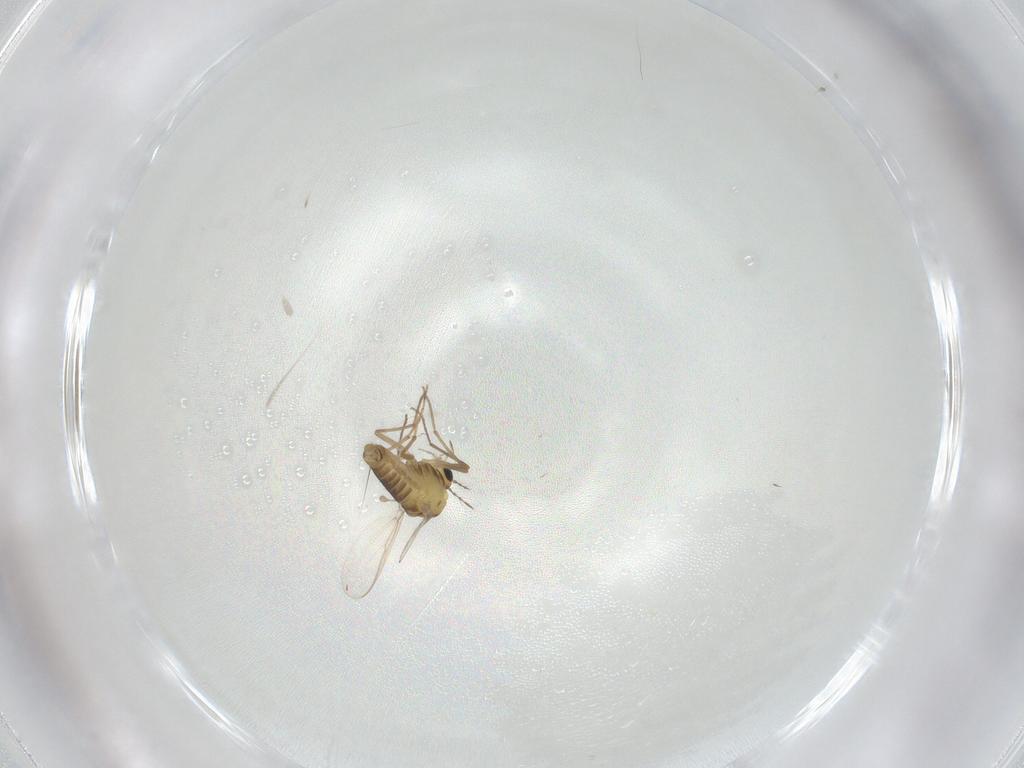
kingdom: Animalia
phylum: Arthropoda
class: Insecta
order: Diptera
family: Chironomidae
